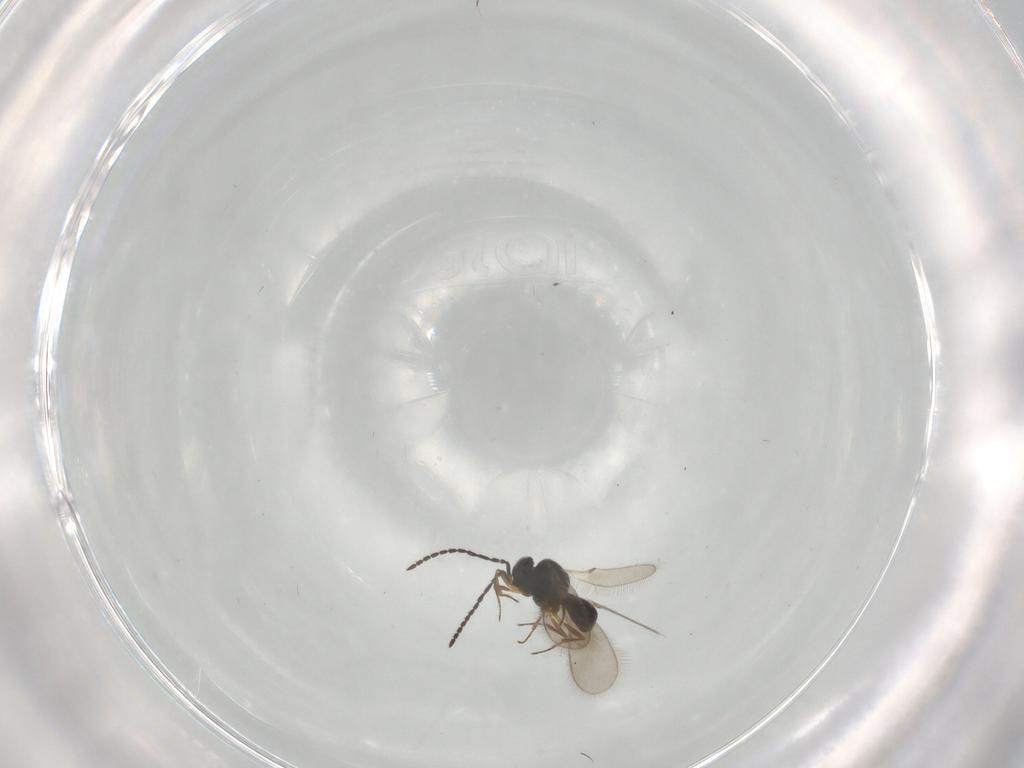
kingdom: Animalia
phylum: Arthropoda
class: Insecta
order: Hymenoptera
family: Scelionidae
